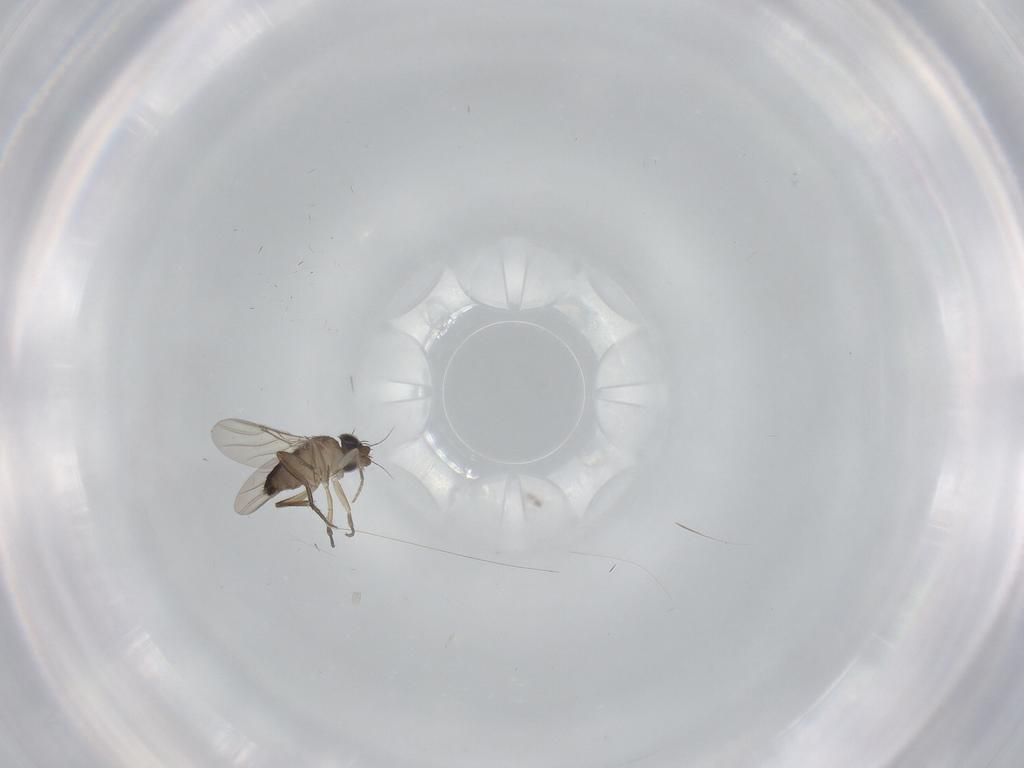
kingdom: Animalia
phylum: Arthropoda
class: Insecta
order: Diptera
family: Phoridae
